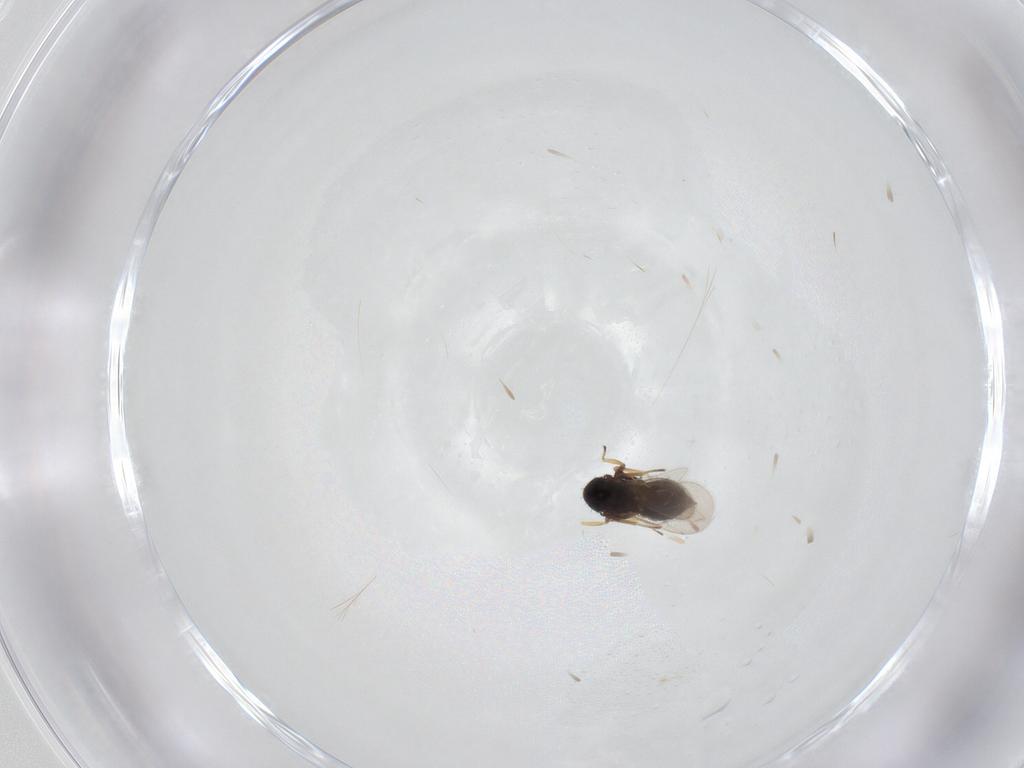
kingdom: Animalia
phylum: Arthropoda
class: Insecta
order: Hymenoptera
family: Eulophidae
